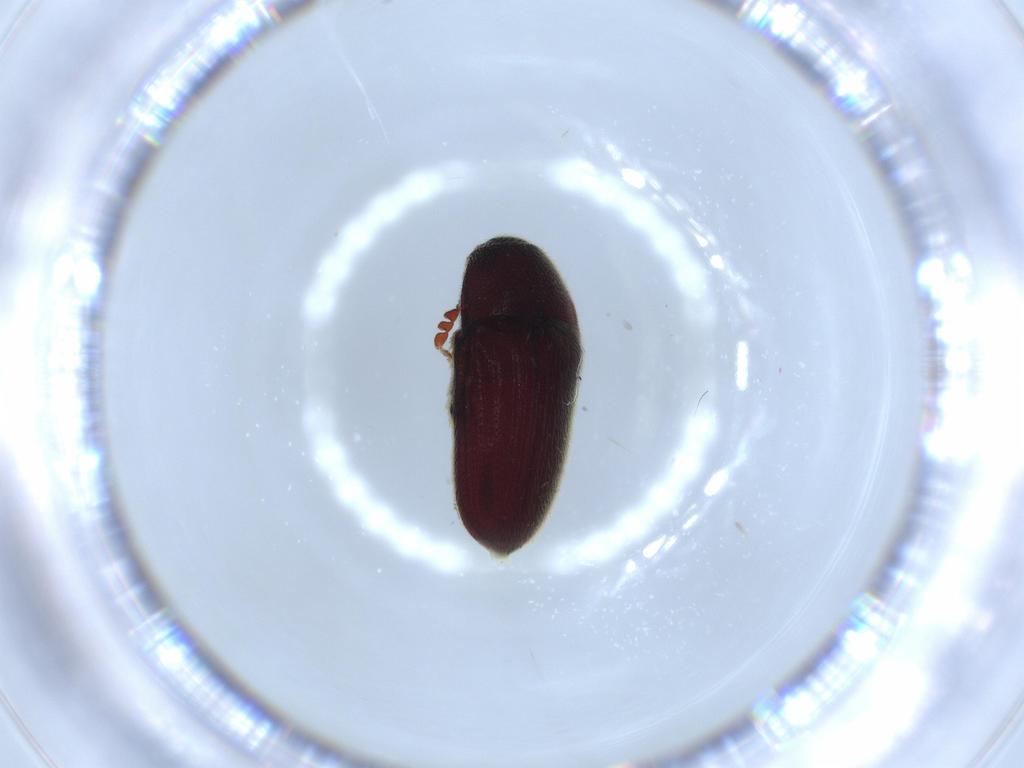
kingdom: Animalia
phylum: Arthropoda
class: Insecta
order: Coleoptera
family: Throscidae
